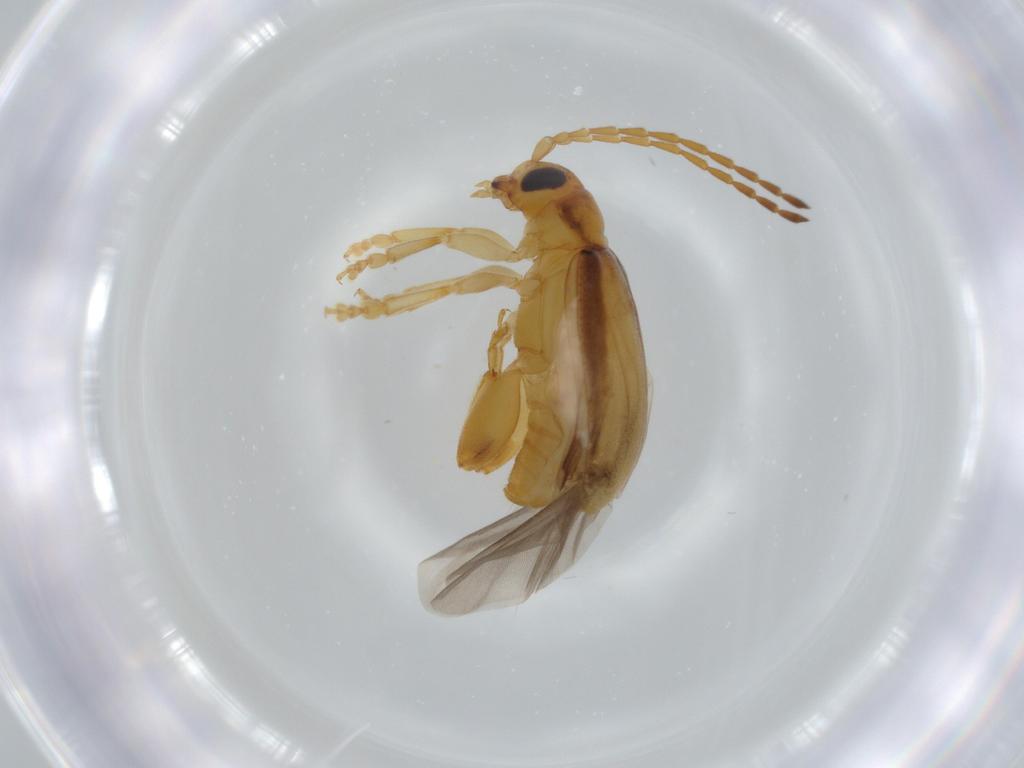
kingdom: Animalia
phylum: Arthropoda
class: Insecta
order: Coleoptera
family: Chrysomelidae
